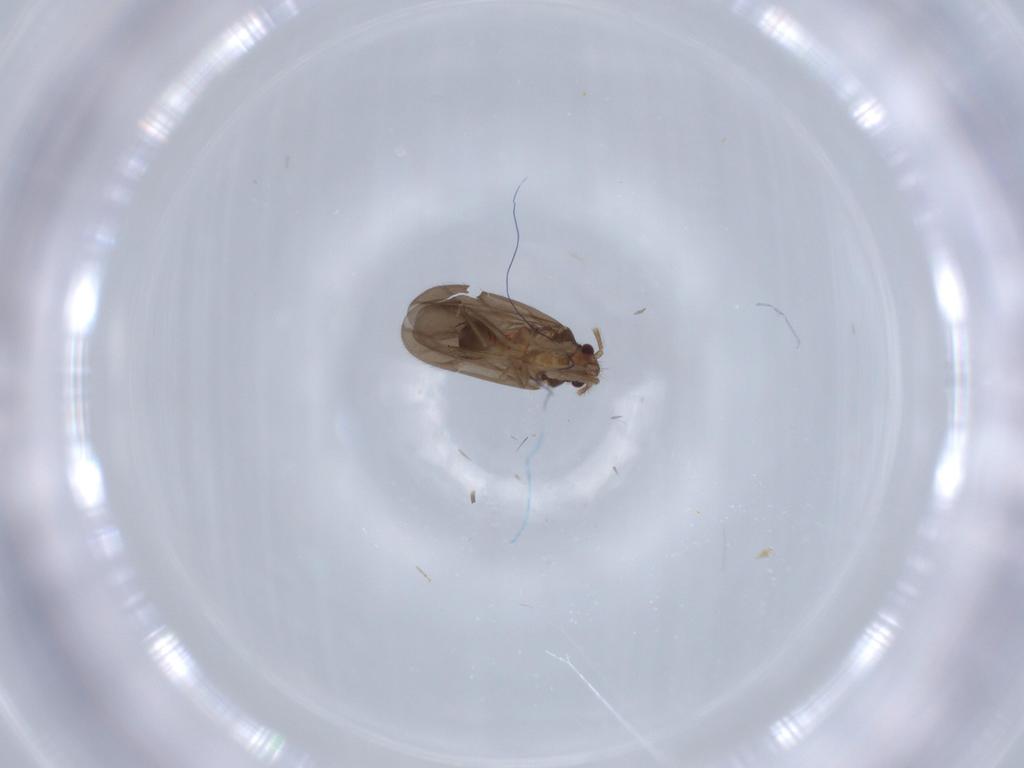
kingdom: Animalia
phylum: Arthropoda
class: Insecta
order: Hemiptera
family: Ceratocombidae
